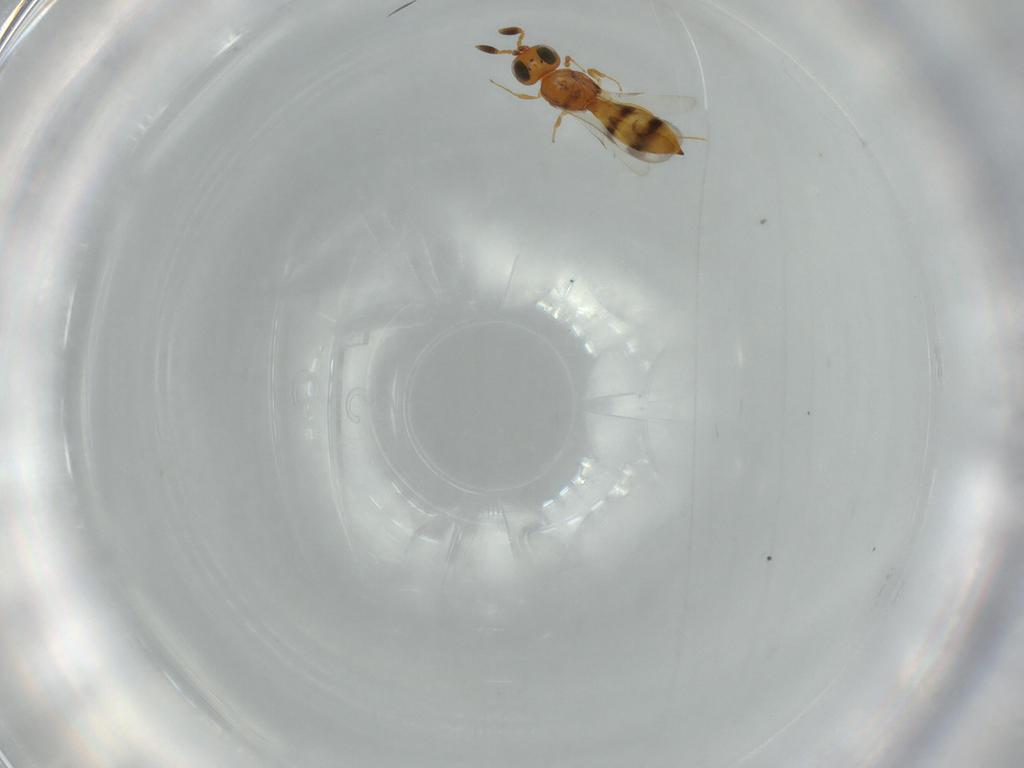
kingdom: Animalia
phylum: Arthropoda
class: Insecta
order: Hymenoptera
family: Scelionidae
